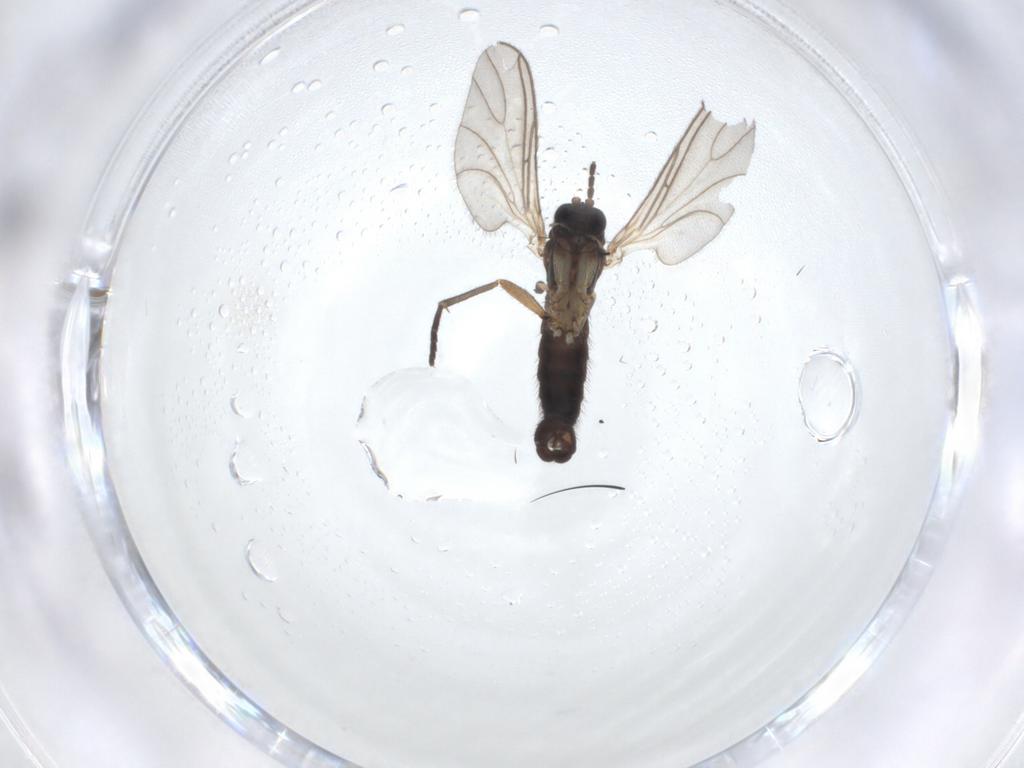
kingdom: Animalia
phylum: Arthropoda
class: Insecta
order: Diptera
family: Sciaridae
